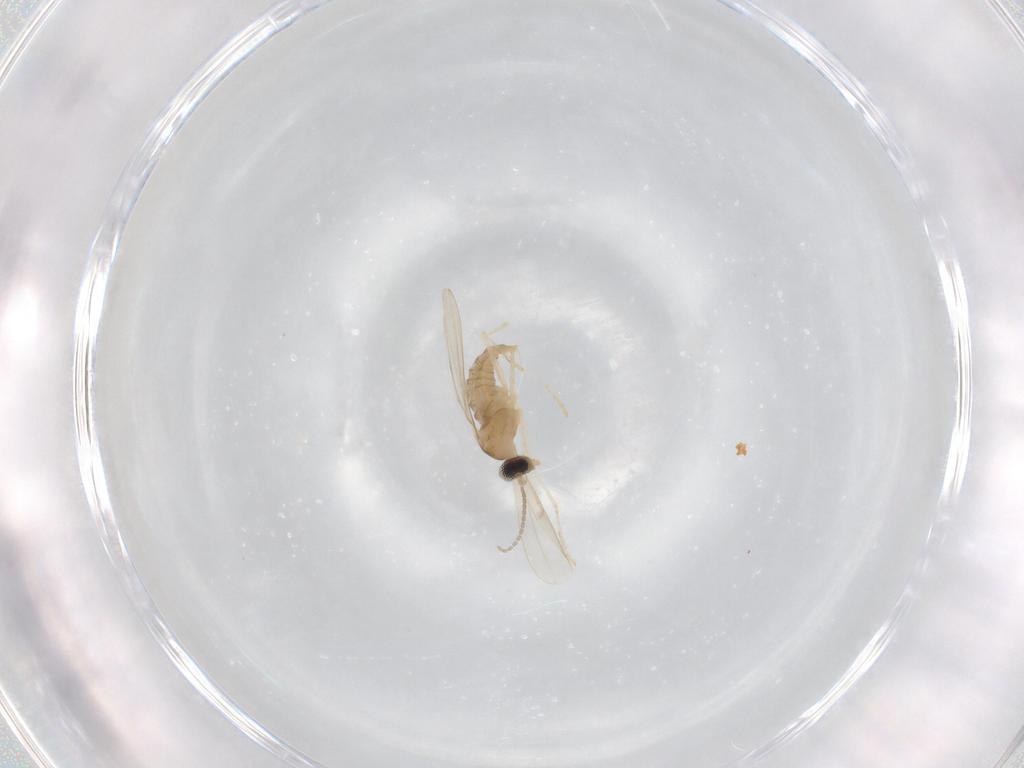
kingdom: Animalia
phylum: Arthropoda
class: Insecta
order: Diptera
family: Cecidomyiidae
